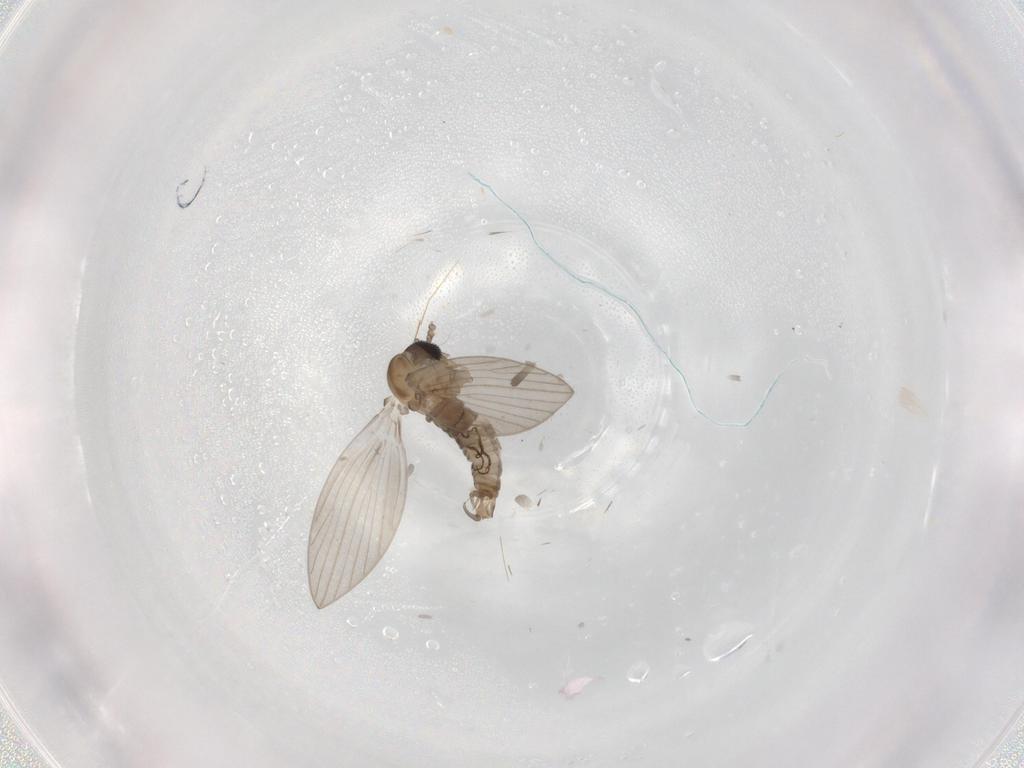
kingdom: Animalia
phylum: Arthropoda
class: Insecta
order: Diptera
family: Psychodidae
